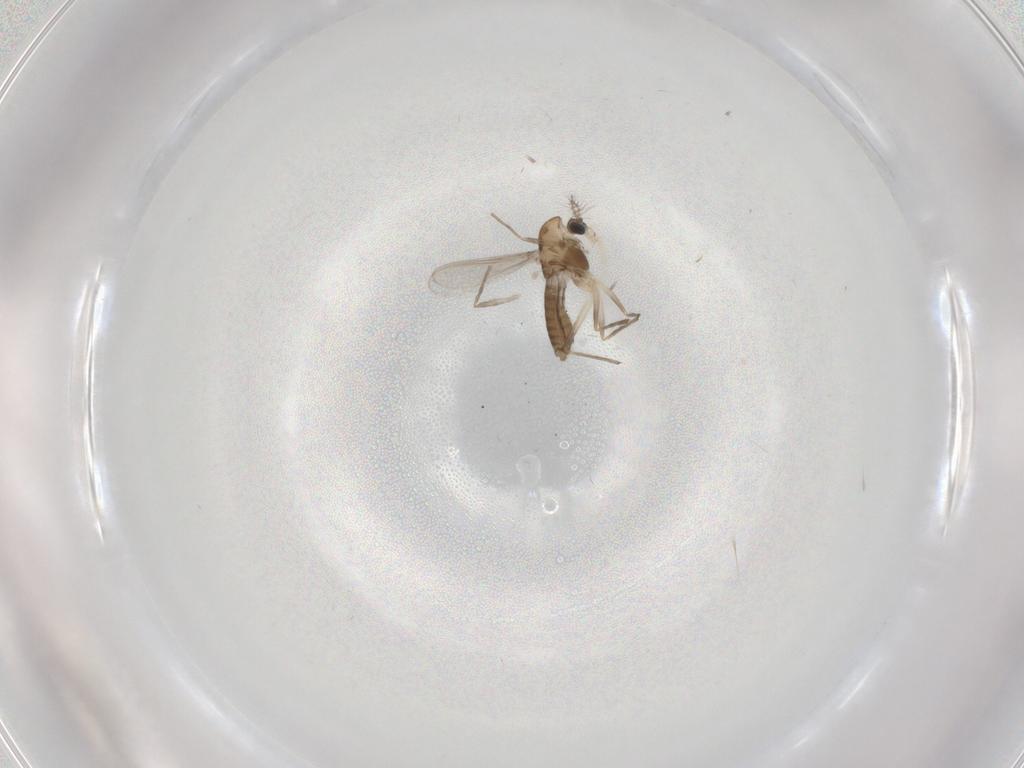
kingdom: Animalia
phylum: Arthropoda
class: Insecta
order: Diptera
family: Chironomidae
